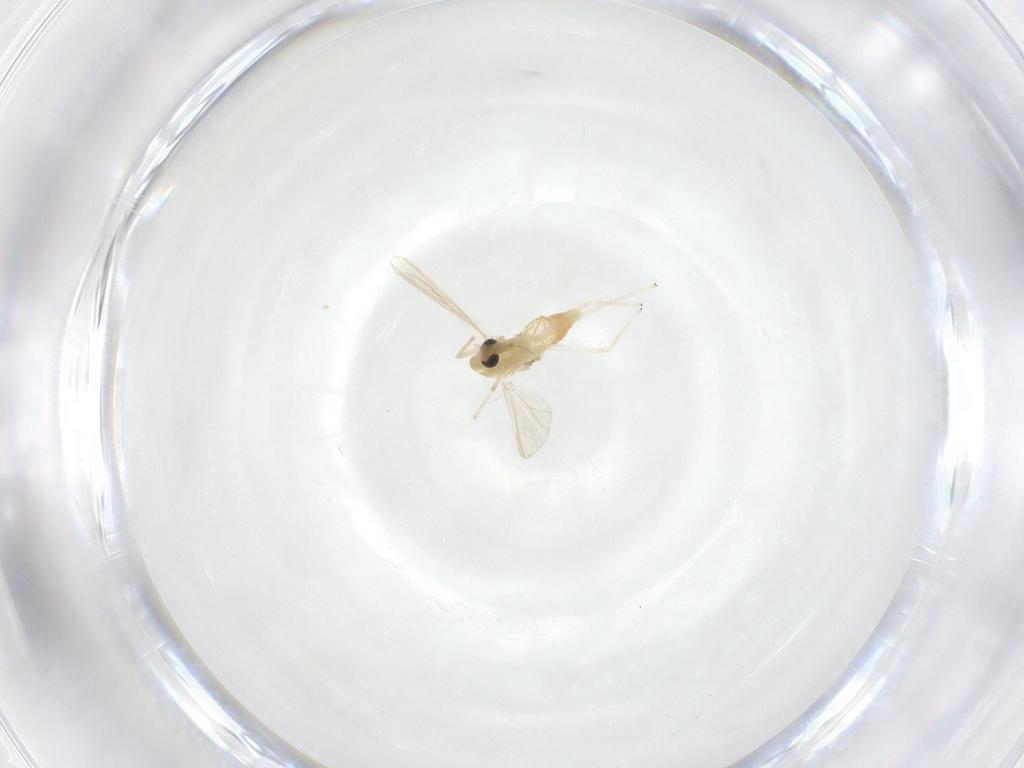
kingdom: Animalia
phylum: Arthropoda
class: Insecta
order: Diptera
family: Chironomidae
